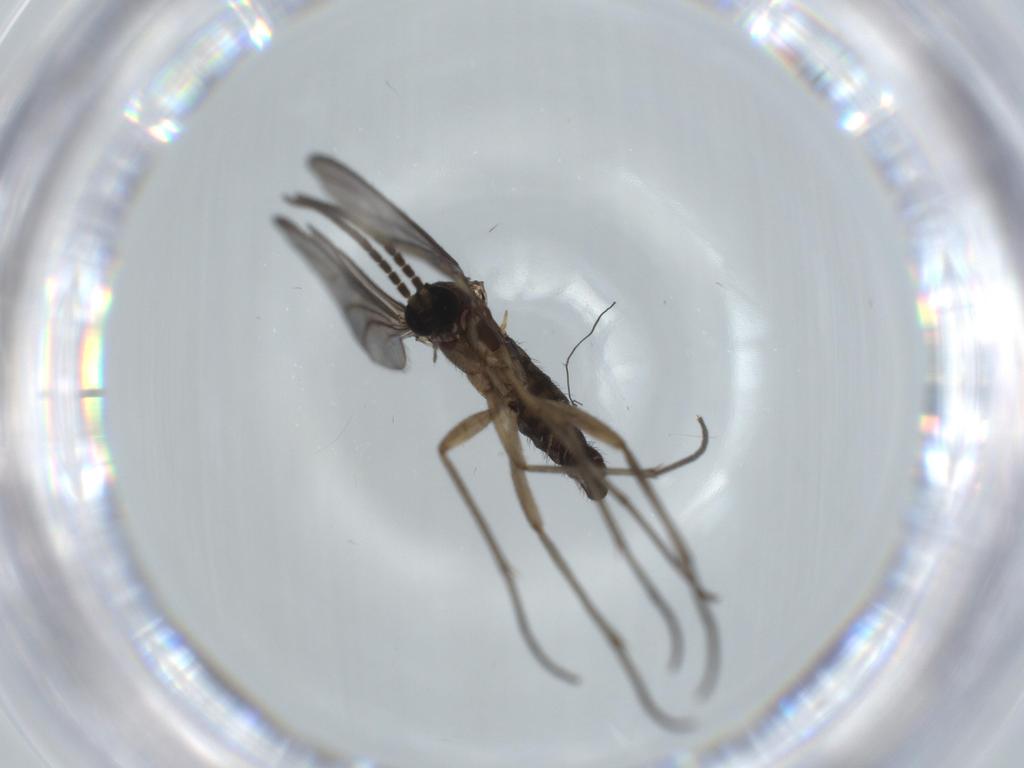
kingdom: Animalia
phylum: Arthropoda
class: Insecta
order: Diptera
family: Sciaridae
